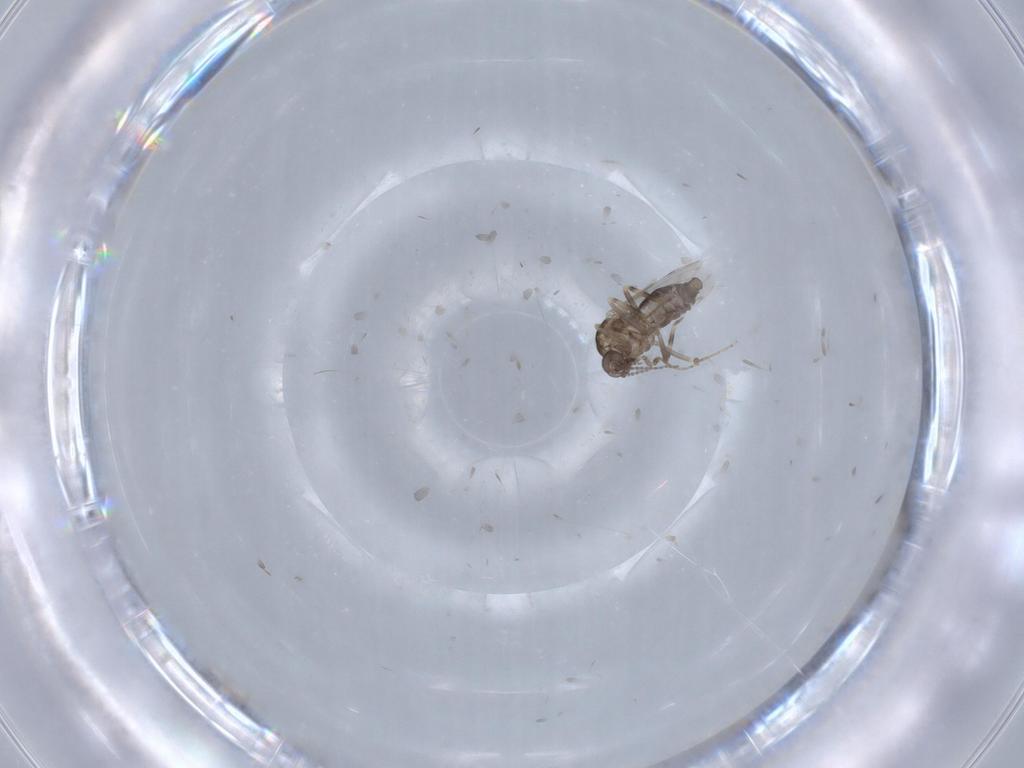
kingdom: Animalia
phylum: Arthropoda
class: Insecta
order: Diptera
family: Ceratopogonidae
